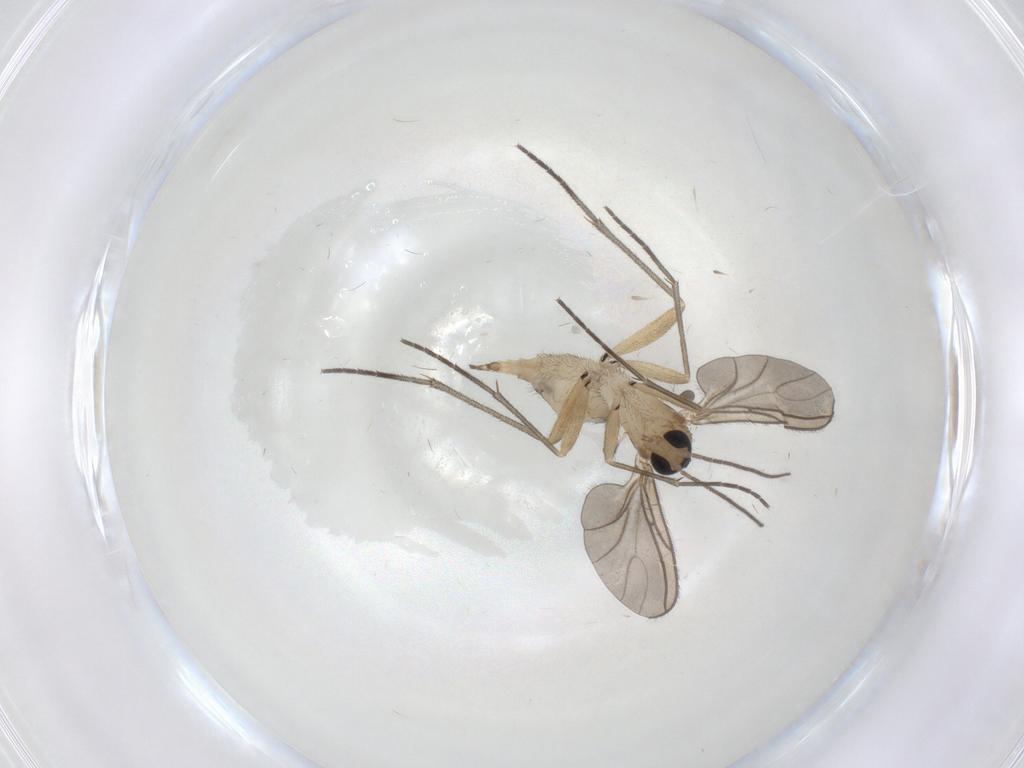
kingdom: Animalia
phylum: Arthropoda
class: Insecta
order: Diptera
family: Sciaridae
